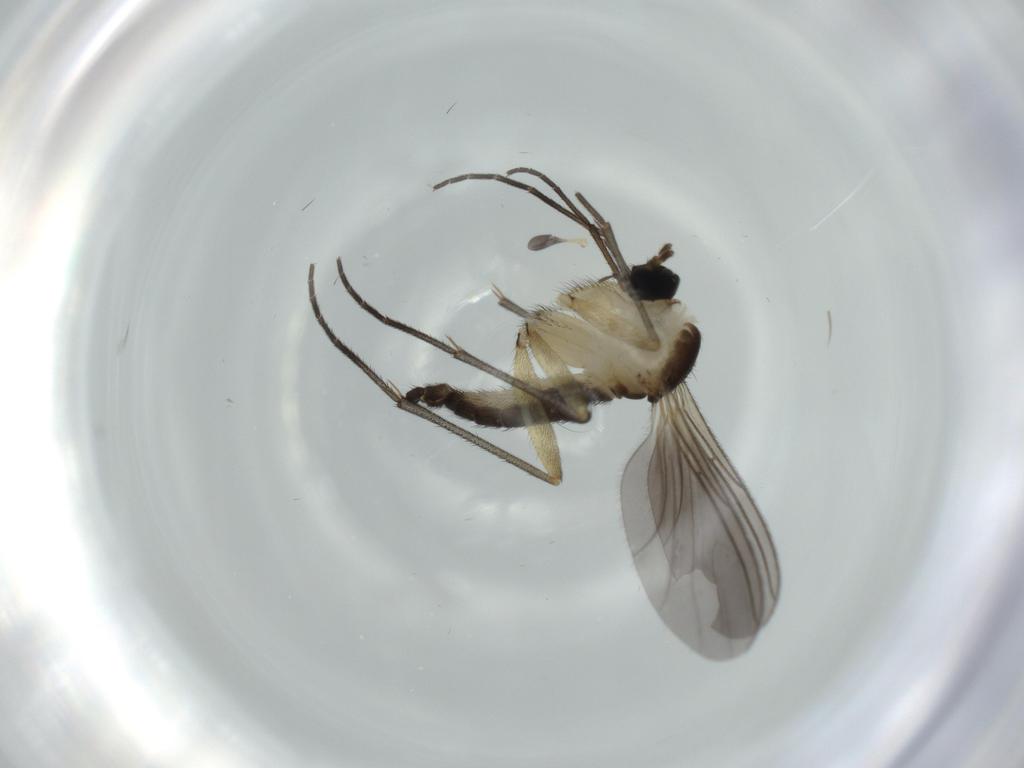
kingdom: Animalia
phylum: Arthropoda
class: Insecta
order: Diptera
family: Sciaridae
